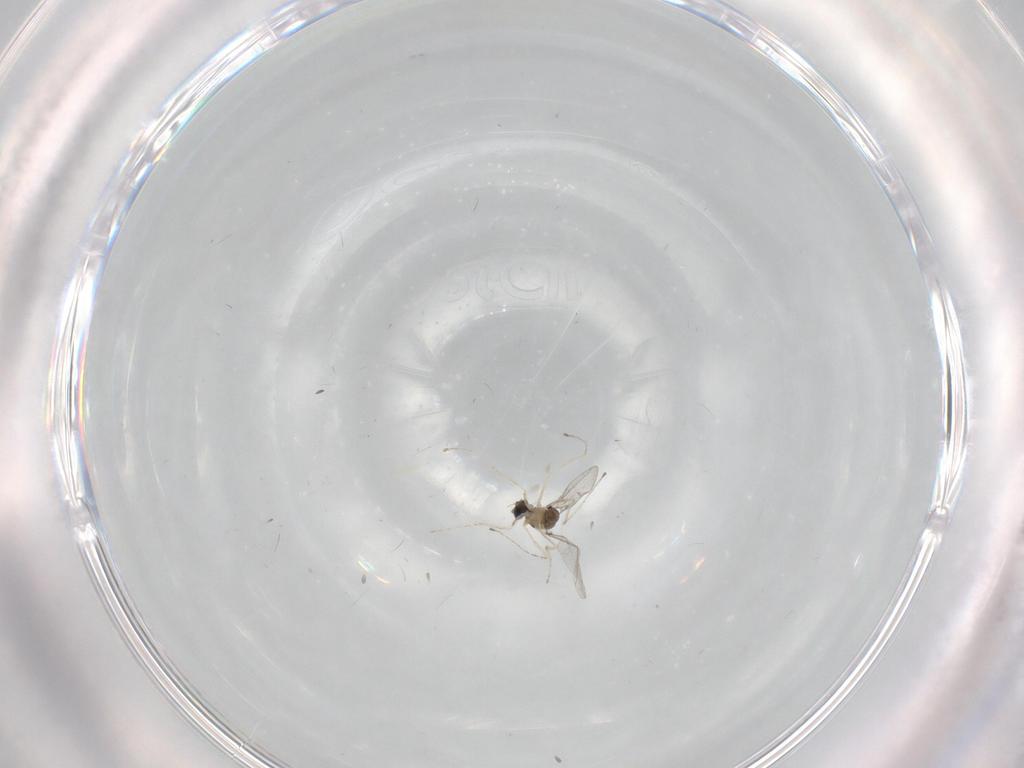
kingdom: Animalia
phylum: Arthropoda
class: Insecta
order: Diptera
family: Cecidomyiidae
